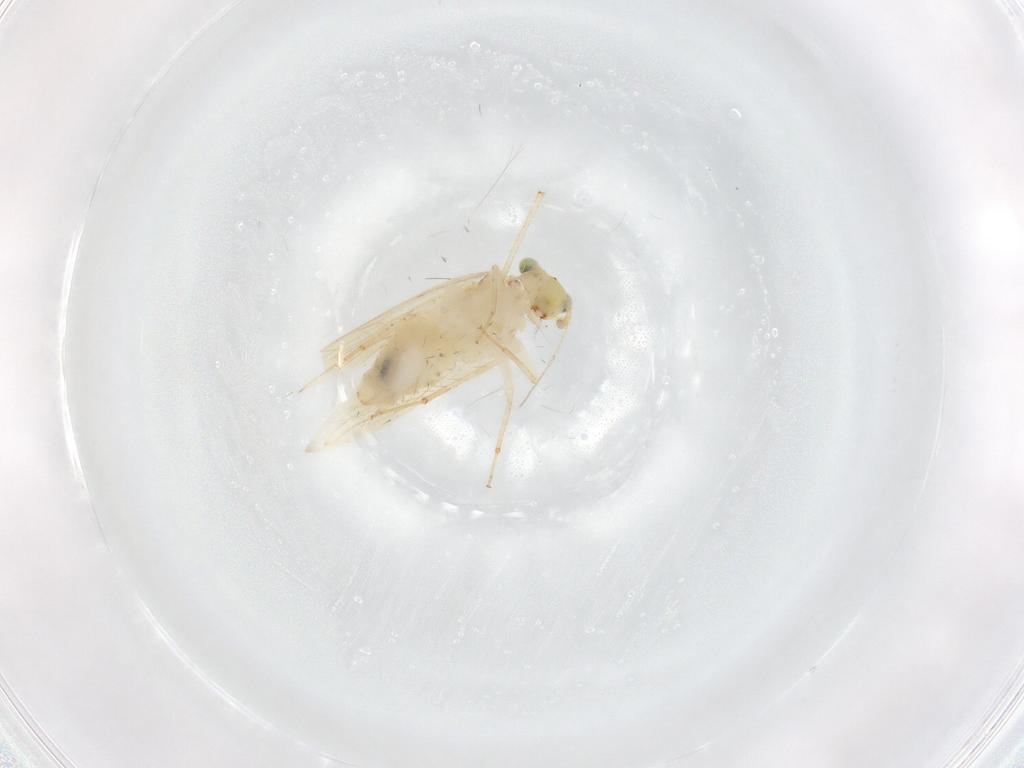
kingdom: Animalia
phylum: Arthropoda
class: Insecta
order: Psocodea
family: Lepidopsocidae
